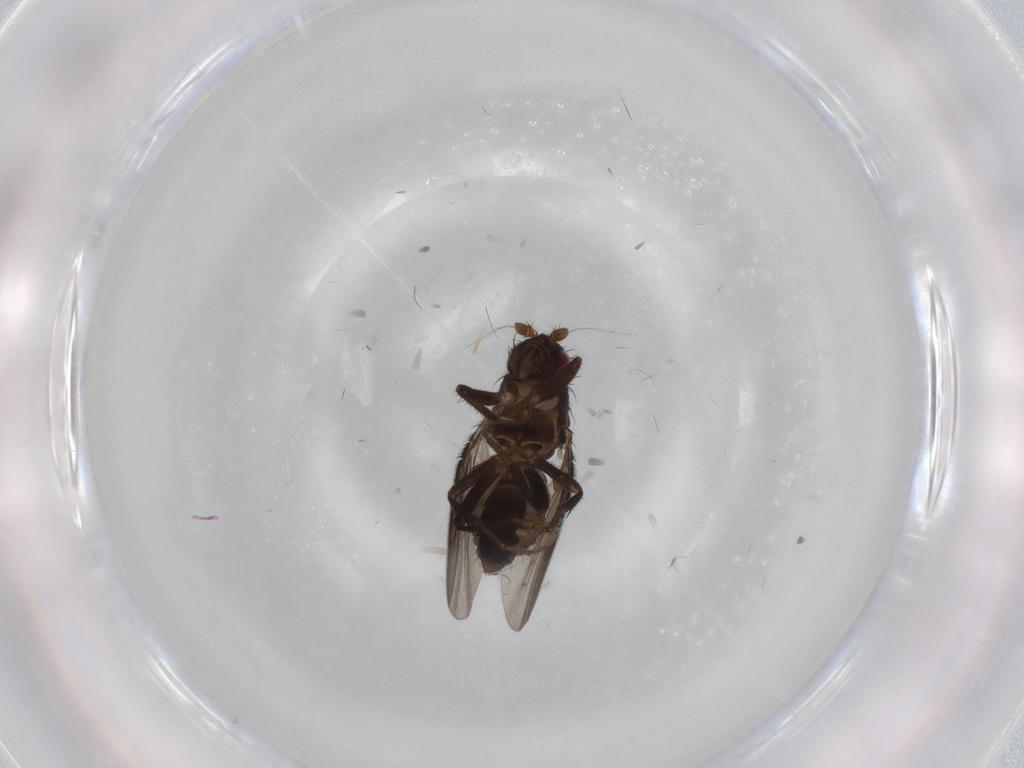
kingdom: Animalia
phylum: Arthropoda
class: Insecta
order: Diptera
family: Sphaeroceridae
